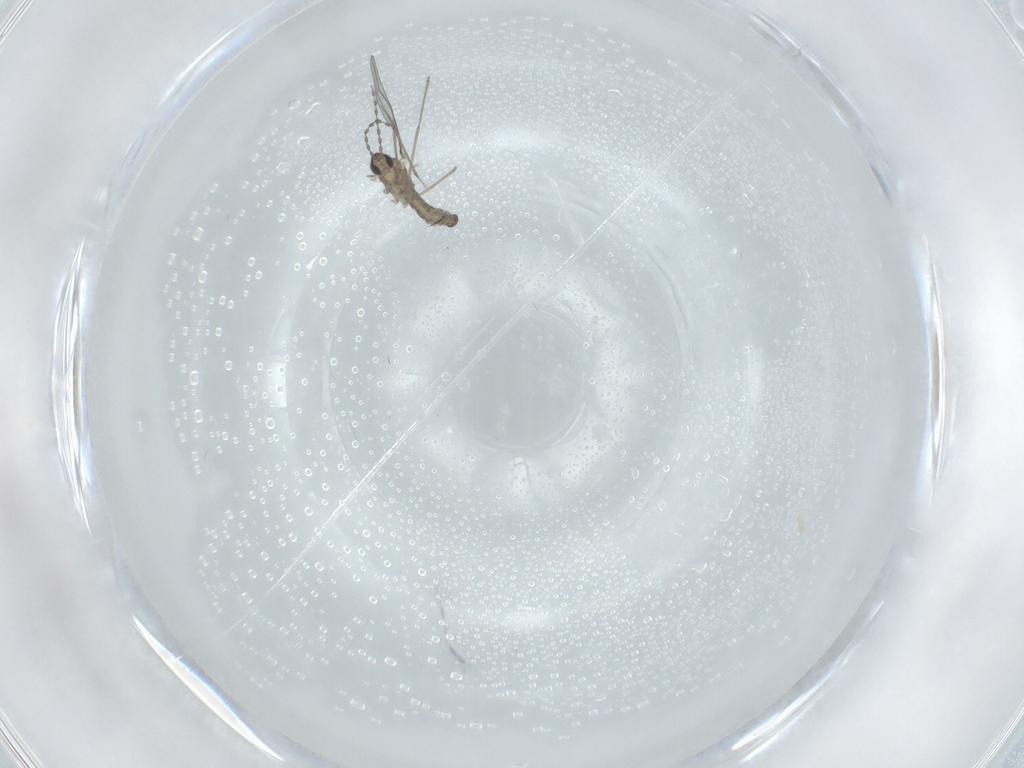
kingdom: Animalia
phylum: Arthropoda
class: Insecta
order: Diptera
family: Cecidomyiidae
